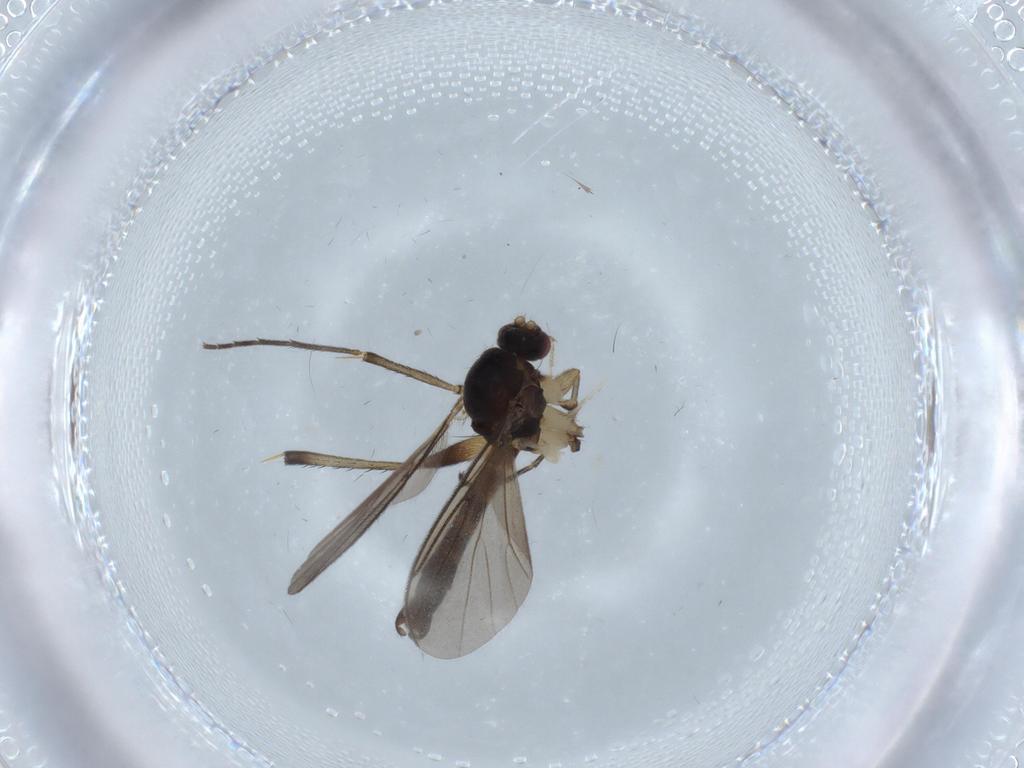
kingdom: Animalia
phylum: Arthropoda
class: Insecta
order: Diptera
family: Mycetophilidae
